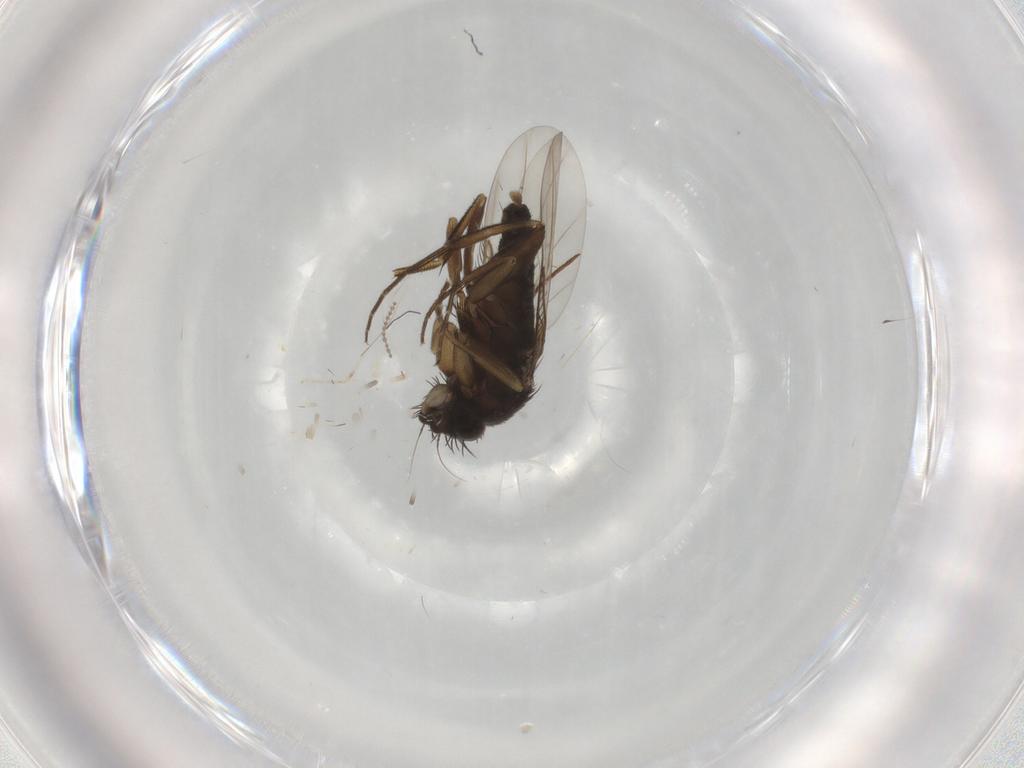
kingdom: Animalia
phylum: Arthropoda
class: Insecta
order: Diptera
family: Phoridae
